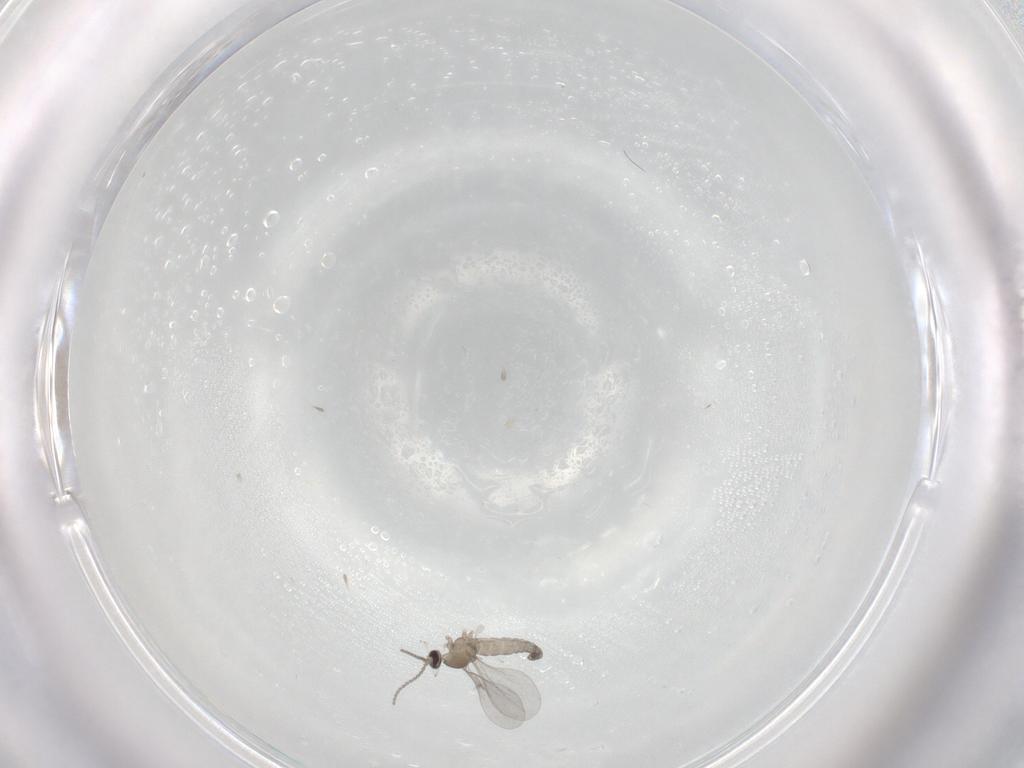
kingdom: Animalia
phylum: Arthropoda
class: Insecta
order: Diptera
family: Cecidomyiidae
